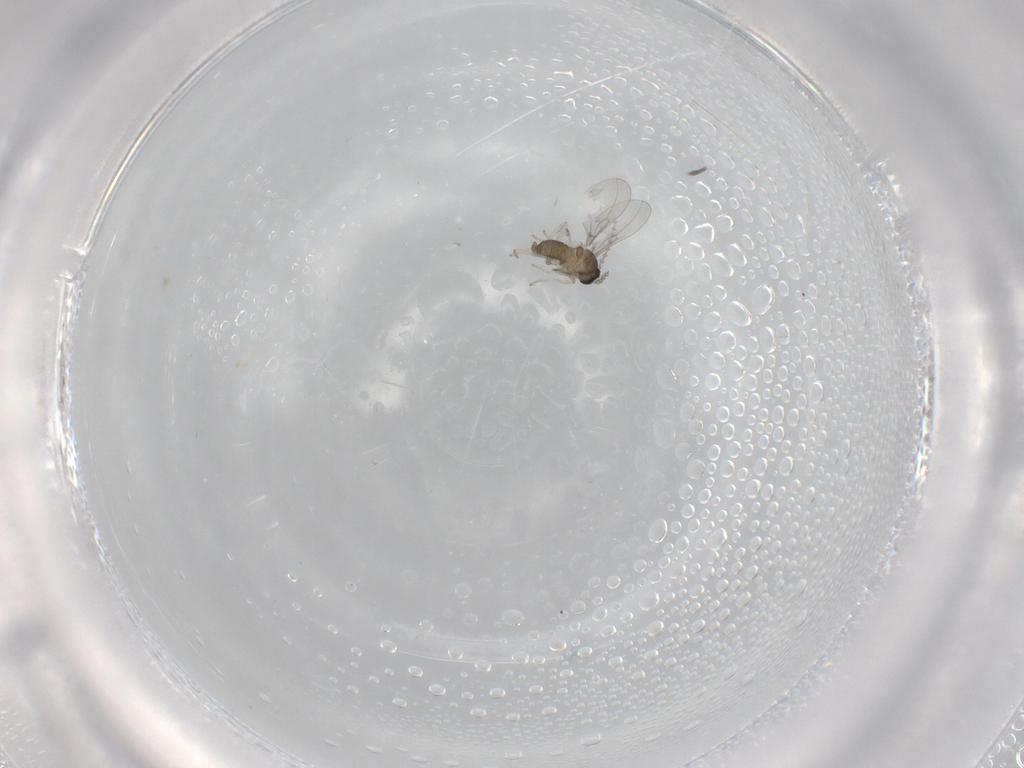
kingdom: Animalia
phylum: Arthropoda
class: Insecta
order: Diptera
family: Cecidomyiidae
